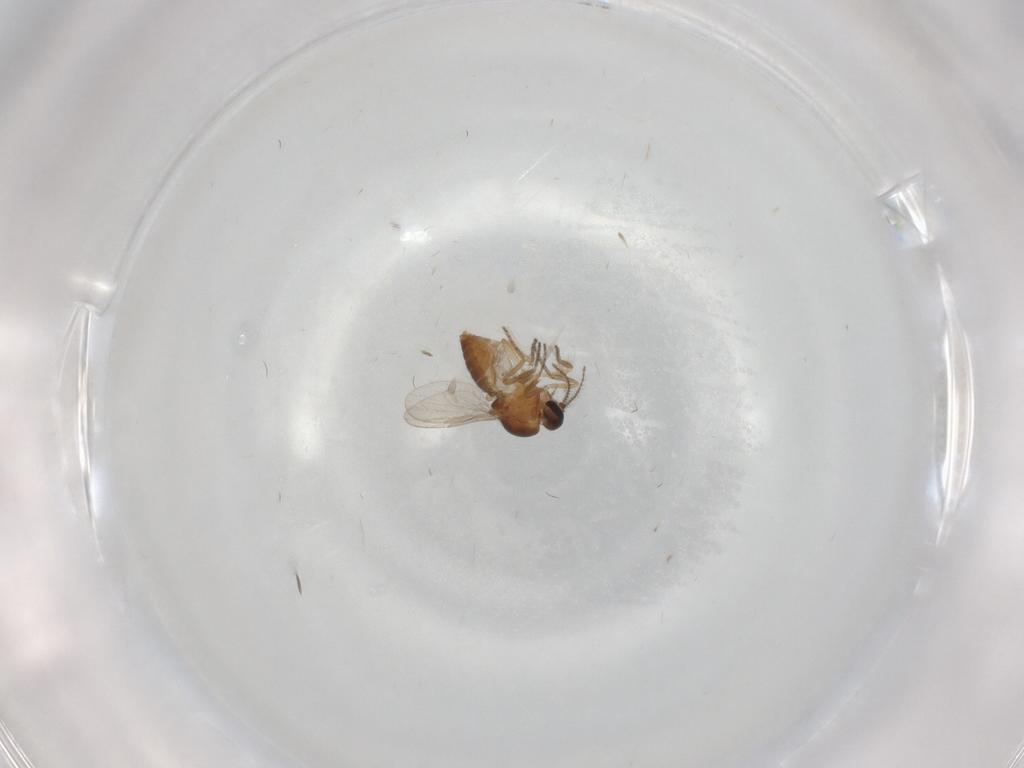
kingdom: Animalia
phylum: Arthropoda
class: Insecta
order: Diptera
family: Ceratopogonidae
